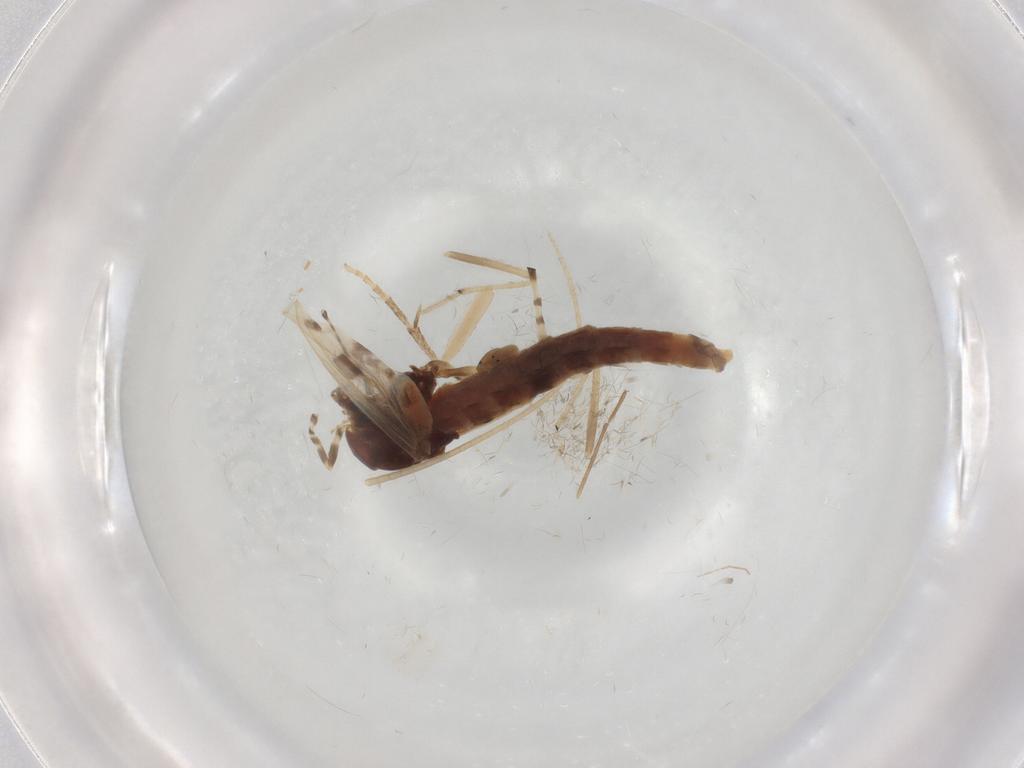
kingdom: Animalia
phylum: Arthropoda
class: Insecta
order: Diptera
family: Chironomidae
